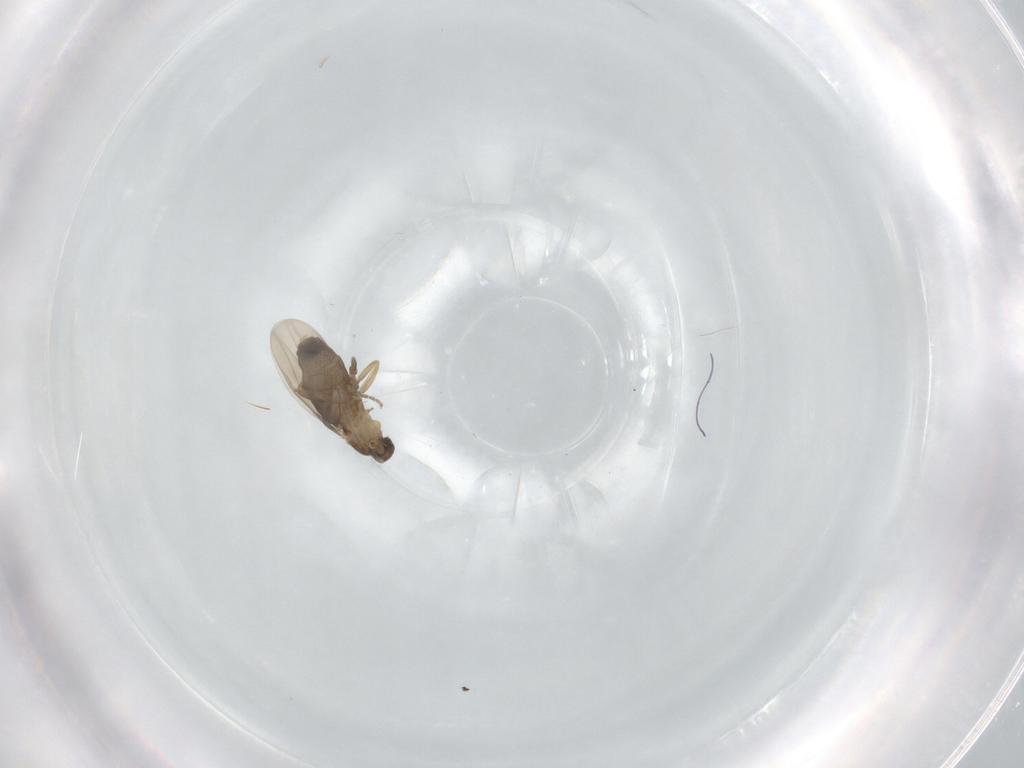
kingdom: Animalia
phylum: Arthropoda
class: Insecta
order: Diptera
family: Phoridae
